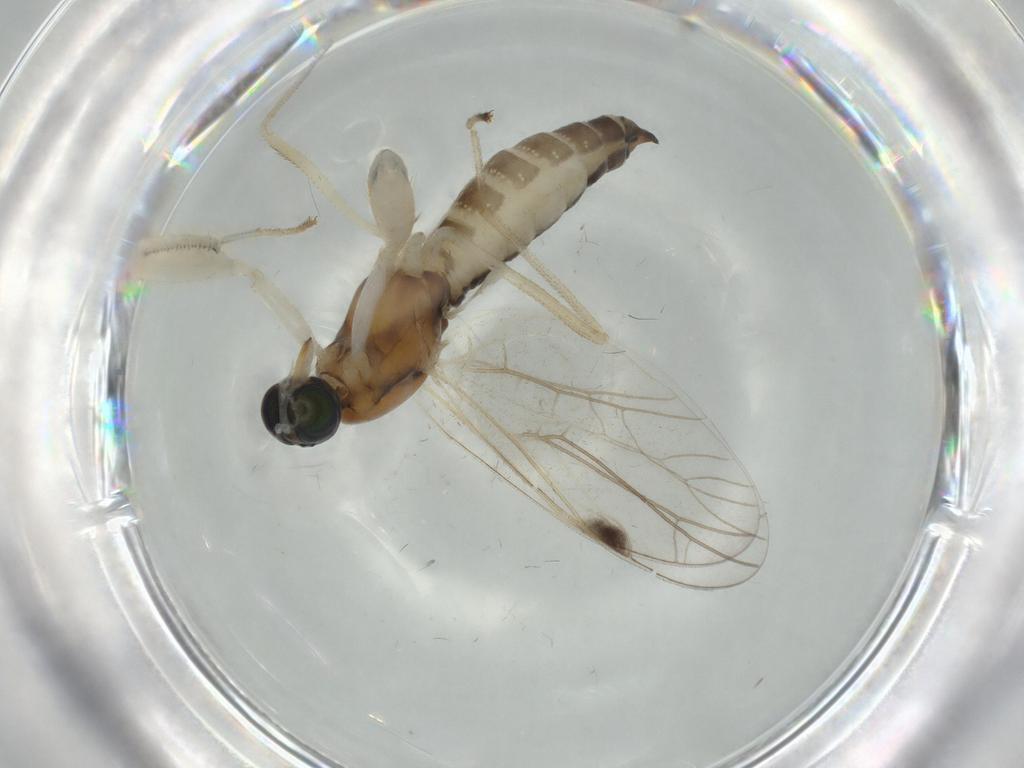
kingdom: Animalia
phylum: Arthropoda
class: Insecta
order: Diptera
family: Empididae
